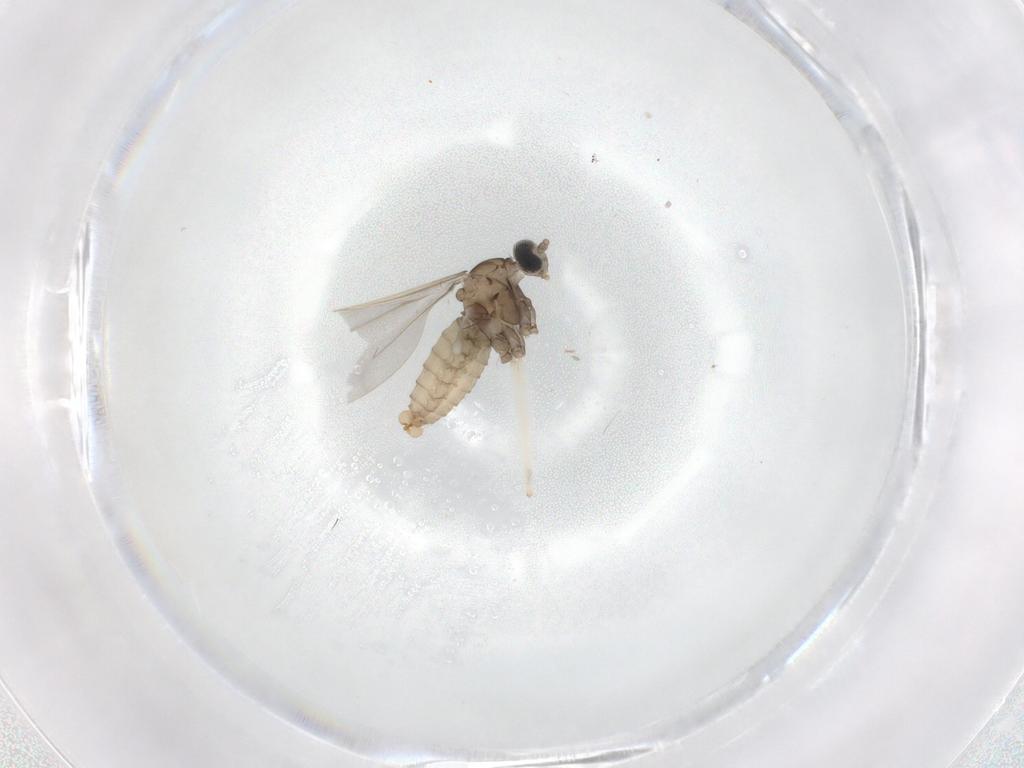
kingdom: Animalia
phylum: Arthropoda
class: Insecta
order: Diptera
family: Cecidomyiidae
